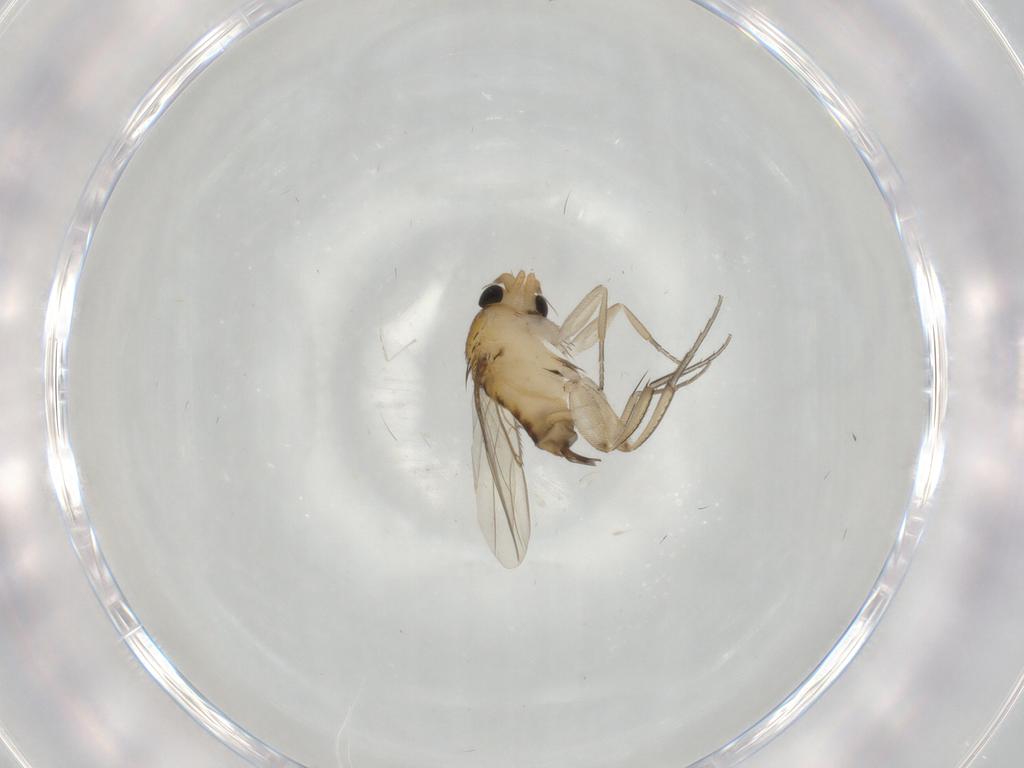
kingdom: Animalia
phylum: Arthropoda
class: Insecta
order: Diptera
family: Phoridae
